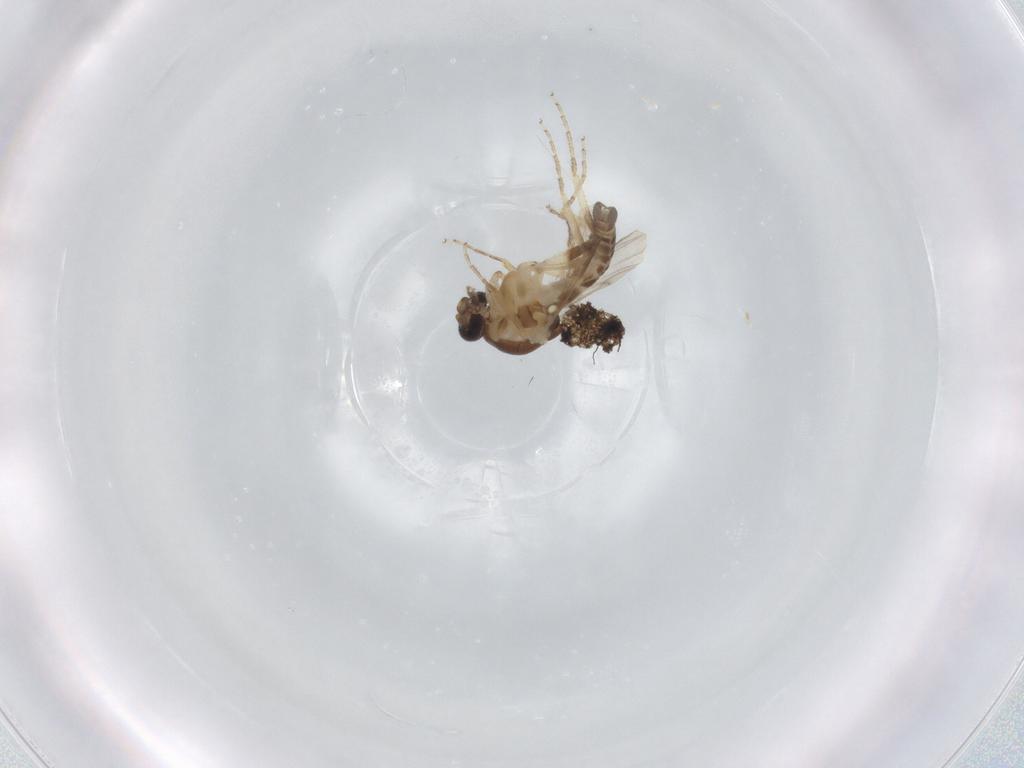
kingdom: Animalia
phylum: Arthropoda
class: Insecta
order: Diptera
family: Ceratopogonidae
